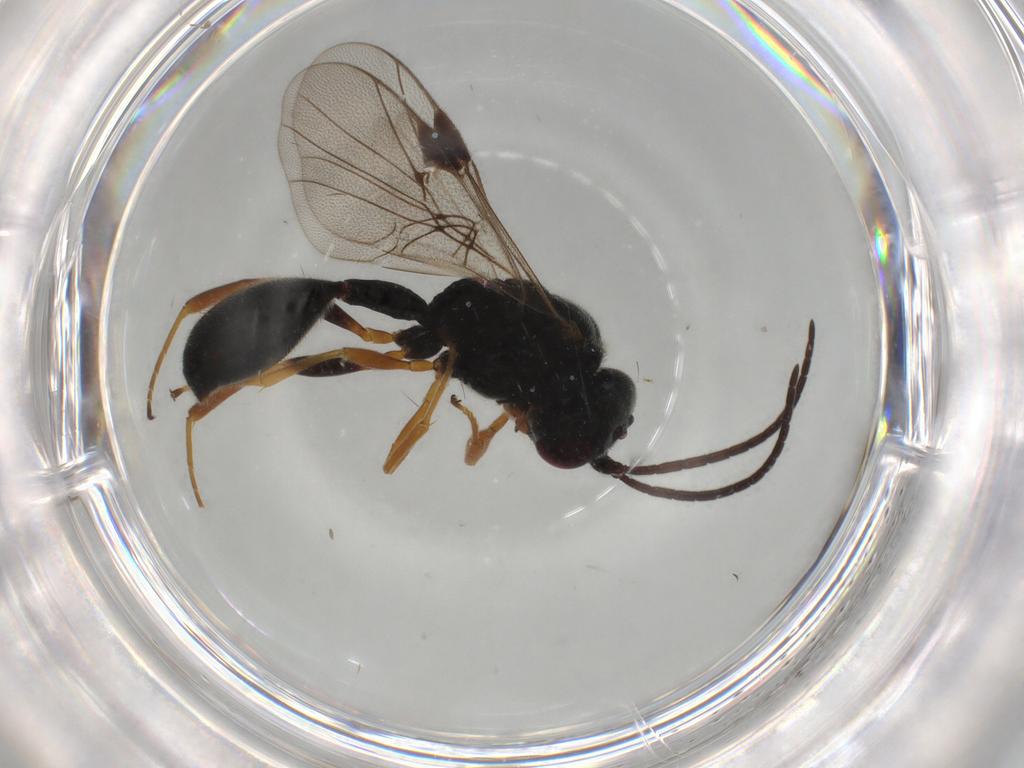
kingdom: Animalia
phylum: Arthropoda
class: Insecta
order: Hymenoptera
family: Heloridae
